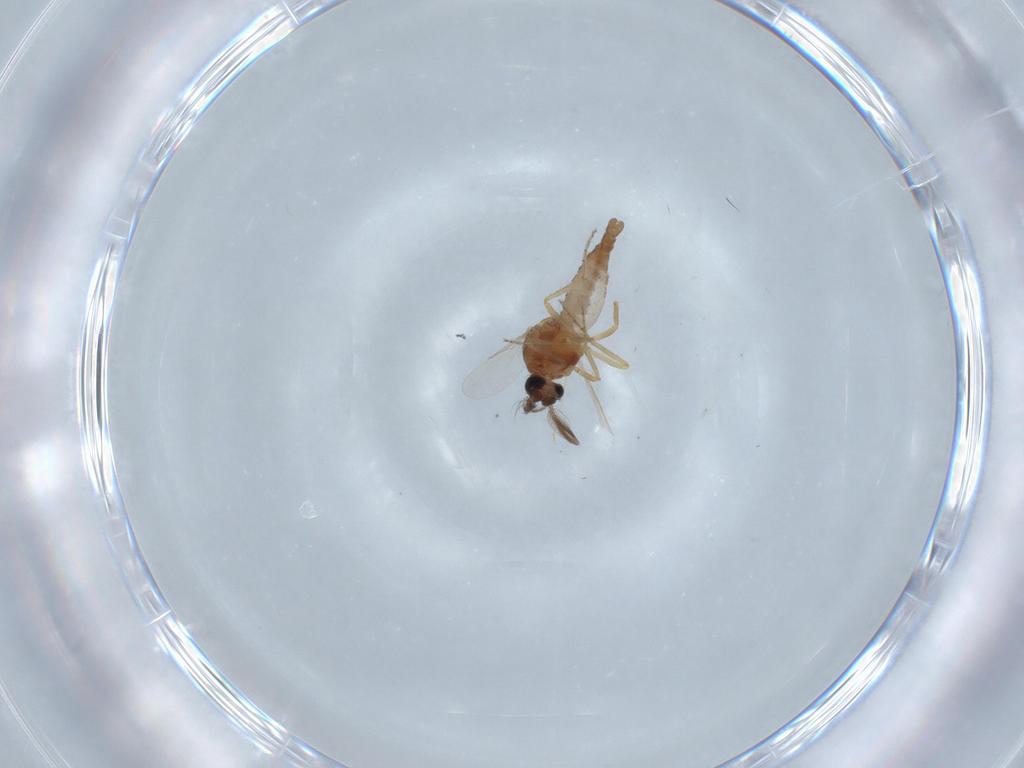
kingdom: Animalia
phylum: Arthropoda
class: Insecta
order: Diptera
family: Ceratopogonidae
